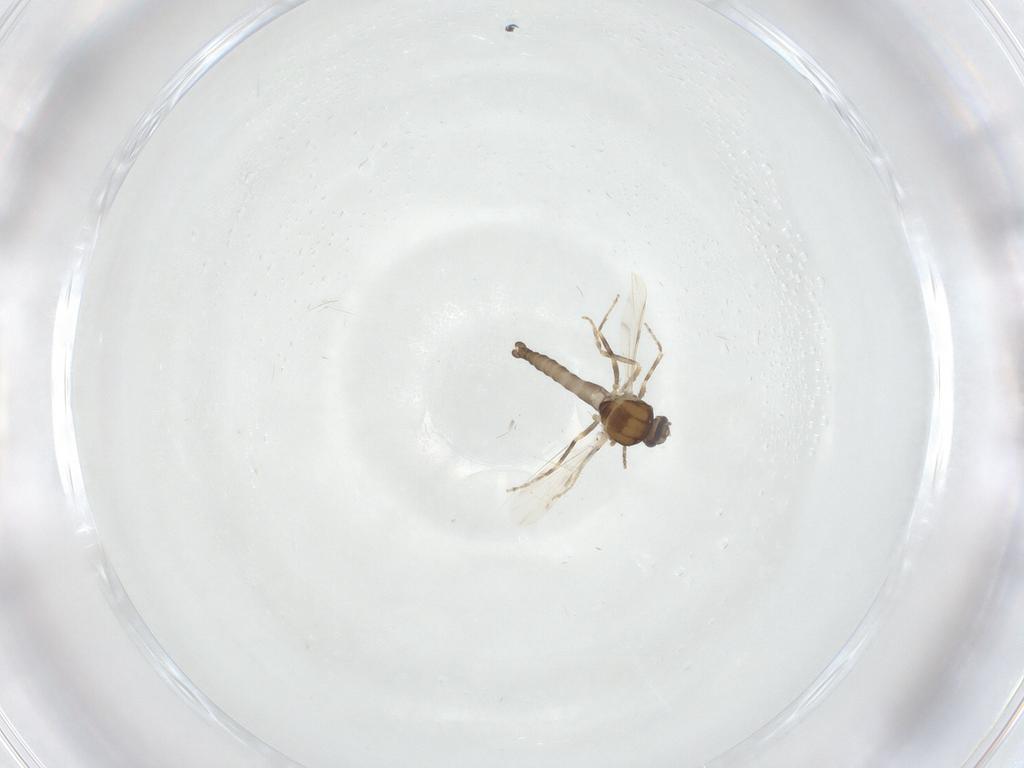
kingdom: Animalia
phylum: Arthropoda
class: Insecta
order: Diptera
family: Ceratopogonidae
